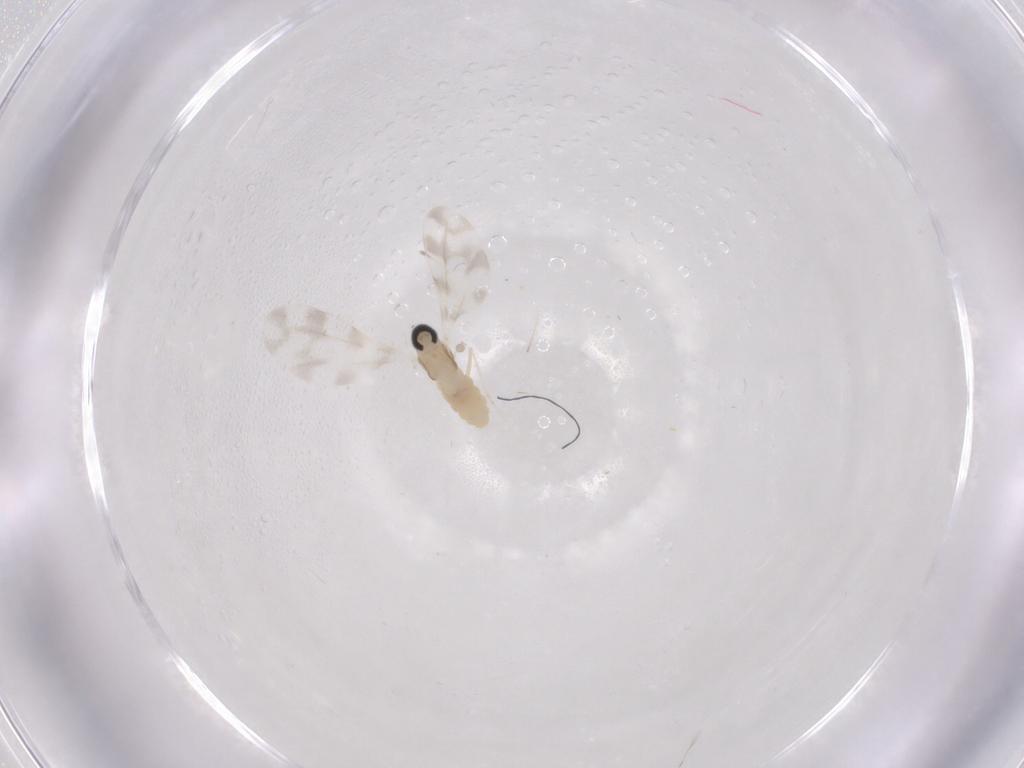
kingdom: Animalia
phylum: Arthropoda
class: Insecta
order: Diptera
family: Cecidomyiidae
